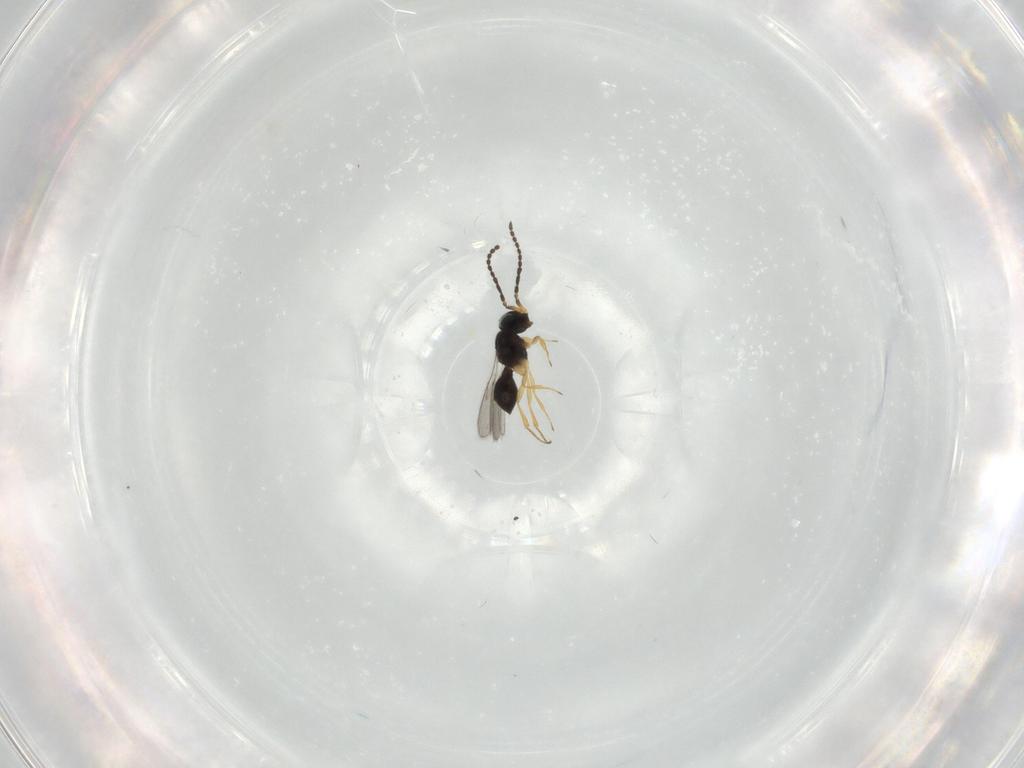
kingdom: Animalia
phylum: Arthropoda
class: Insecta
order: Hymenoptera
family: Scelionidae
